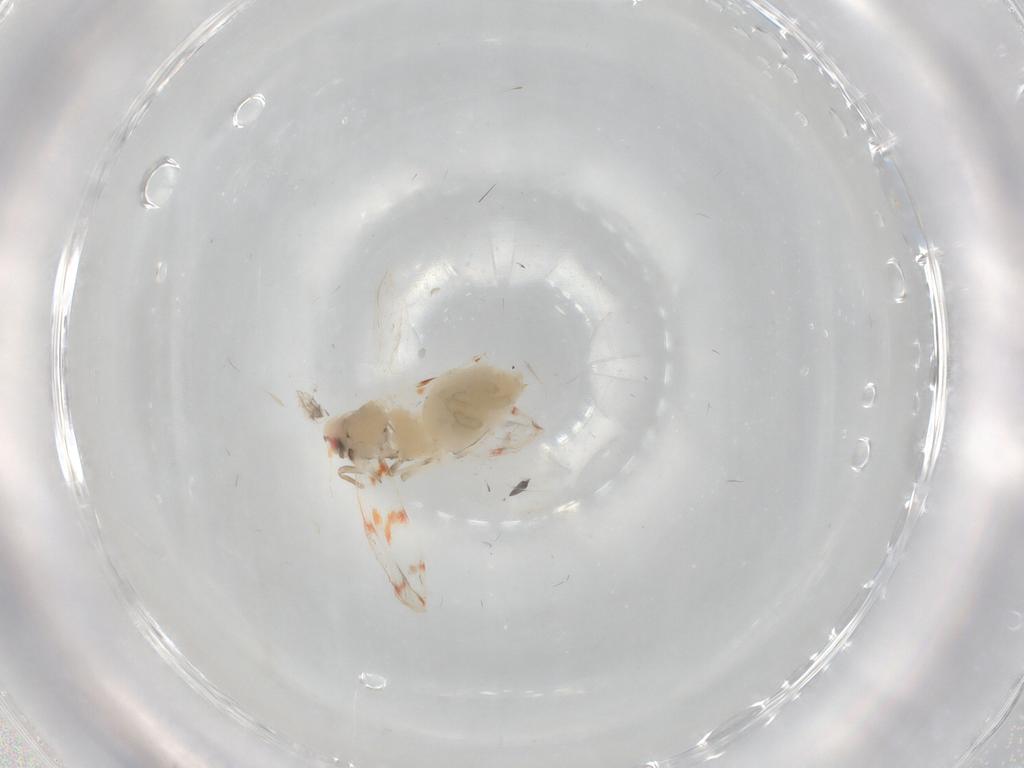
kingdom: Animalia
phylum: Arthropoda
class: Insecta
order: Hemiptera
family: Aleyrodidae
